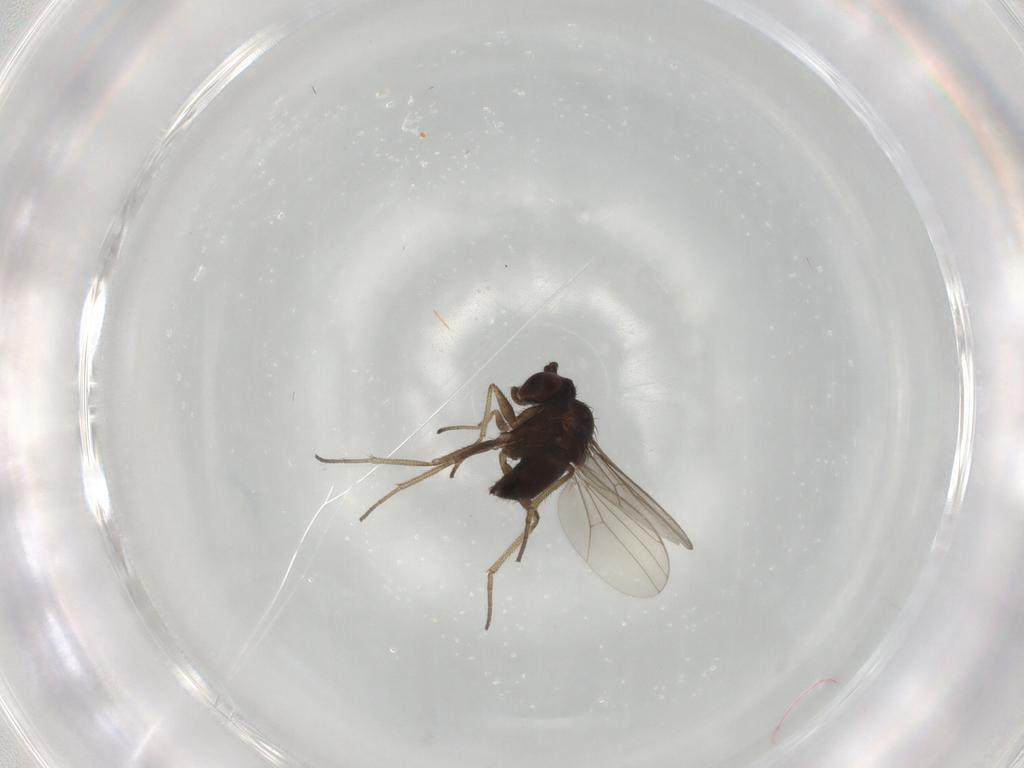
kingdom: Animalia
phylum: Arthropoda
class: Insecta
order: Diptera
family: Dolichopodidae
